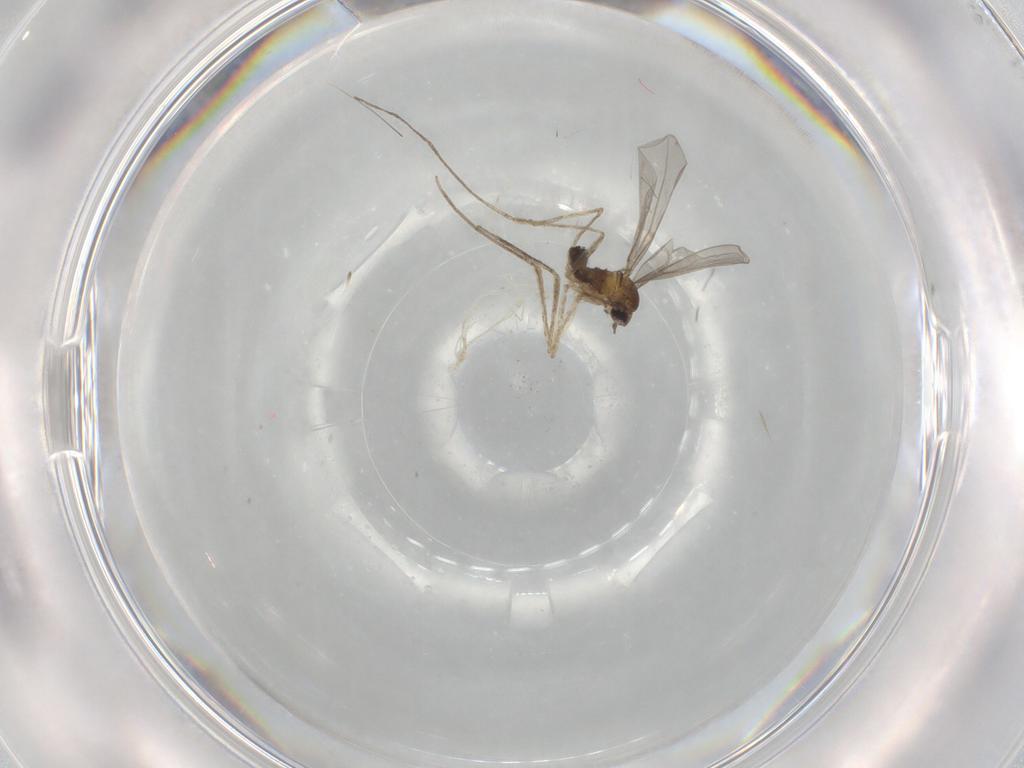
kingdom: Animalia
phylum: Arthropoda
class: Insecta
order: Diptera
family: Cecidomyiidae
